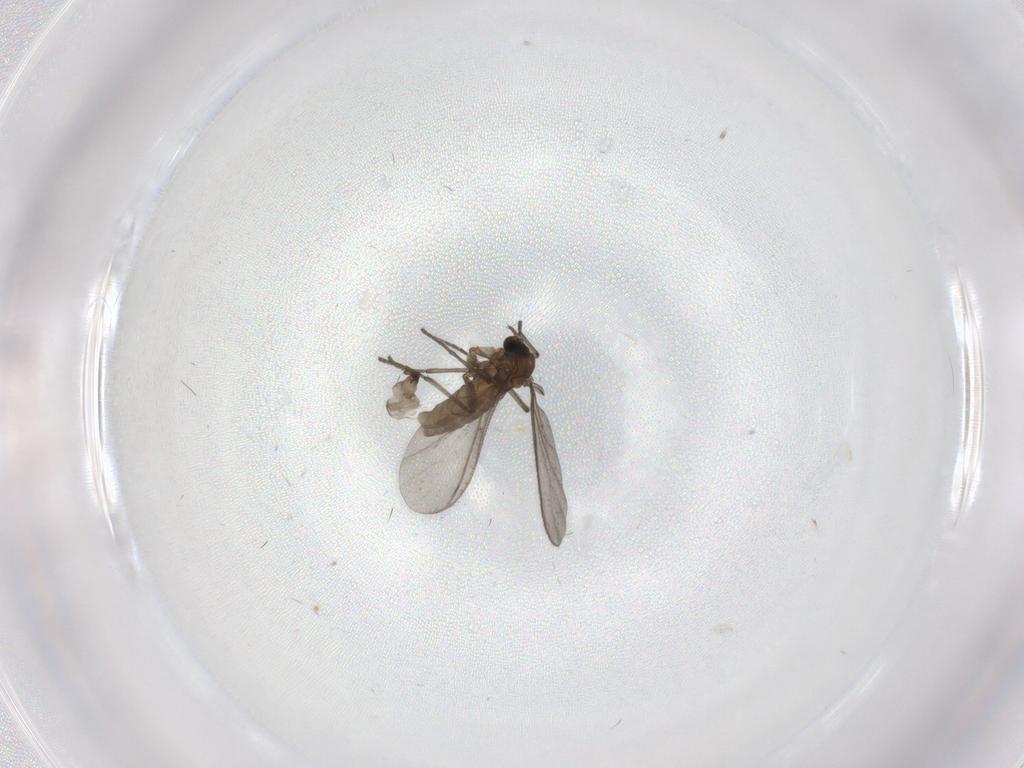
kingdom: Animalia
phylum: Arthropoda
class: Insecta
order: Diptera
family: Sciaridae
